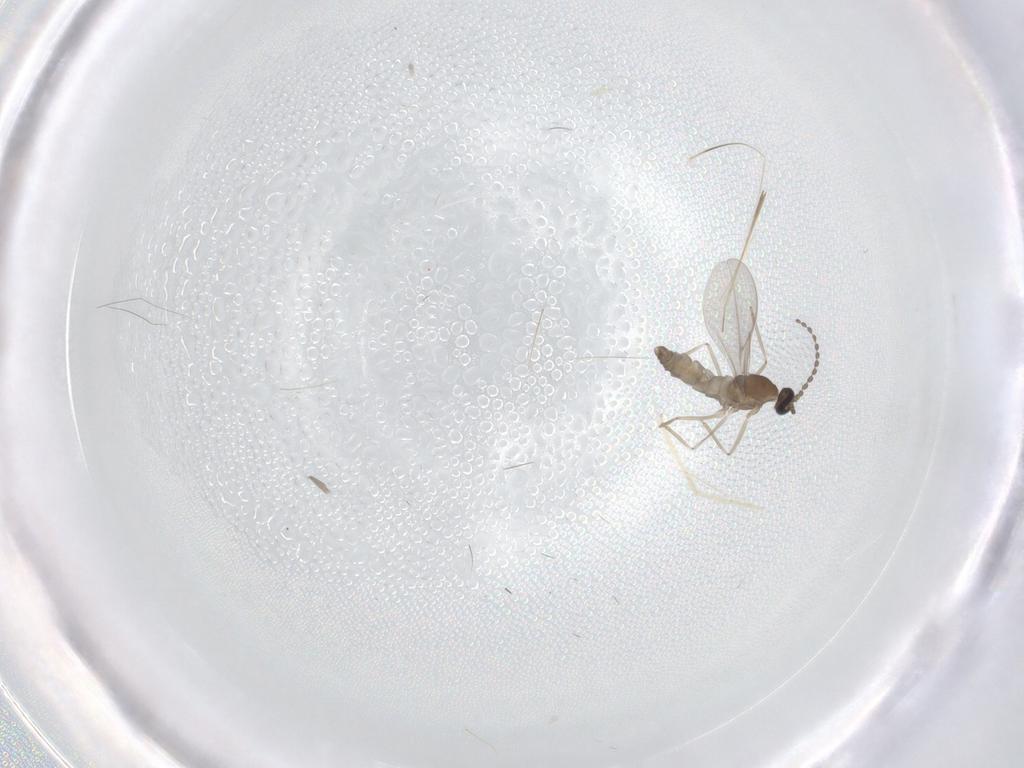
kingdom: Animalia
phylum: Arthropoda
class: Insecta
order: Diptera
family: Cecidomyiidae
